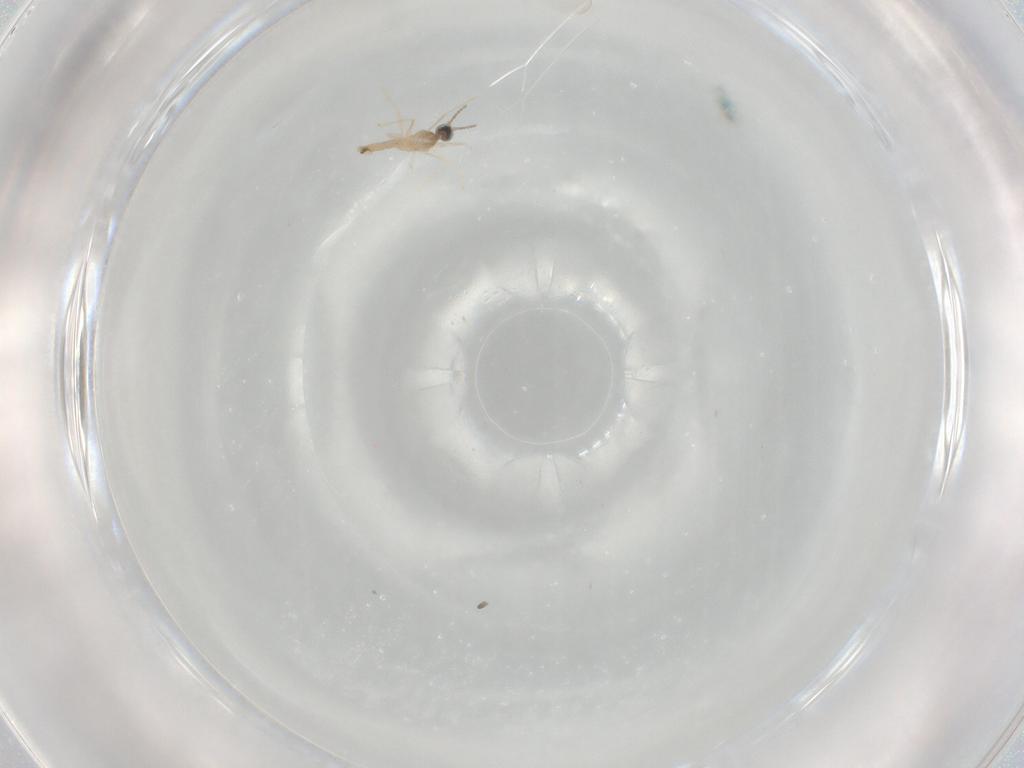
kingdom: Animalia
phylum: Arthropoda
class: Insecta
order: Diptera
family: Cecidomyiidae
